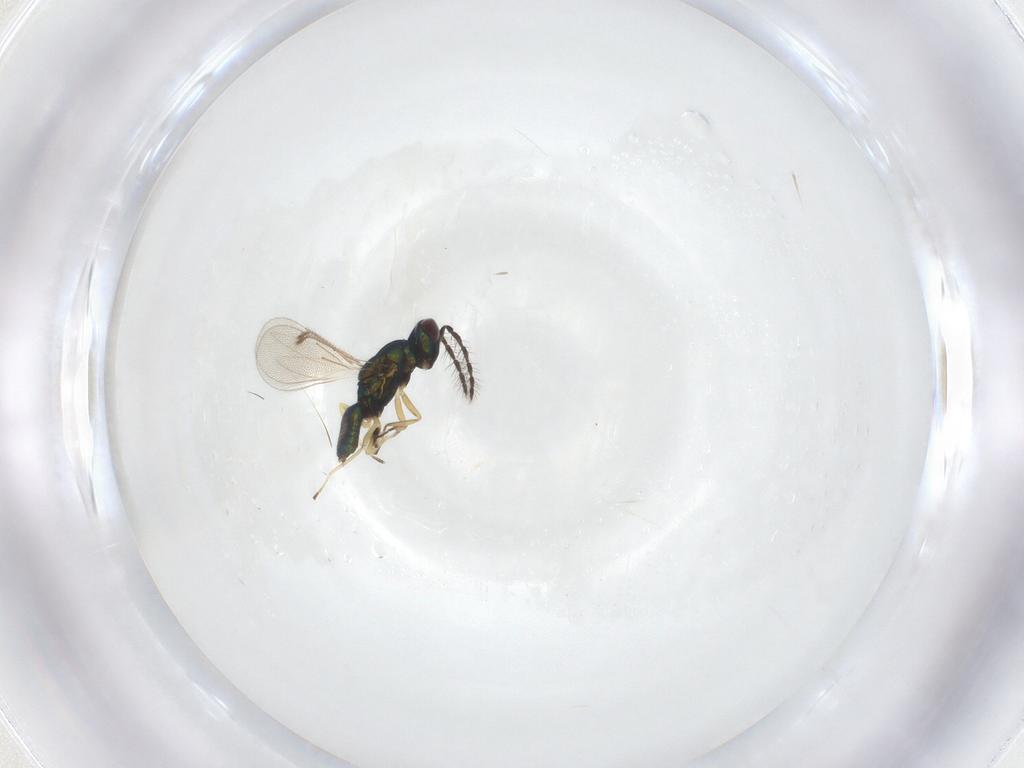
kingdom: Animalia
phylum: Arthropoda
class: Insecta
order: Hymenoptera
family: Eulophidae
